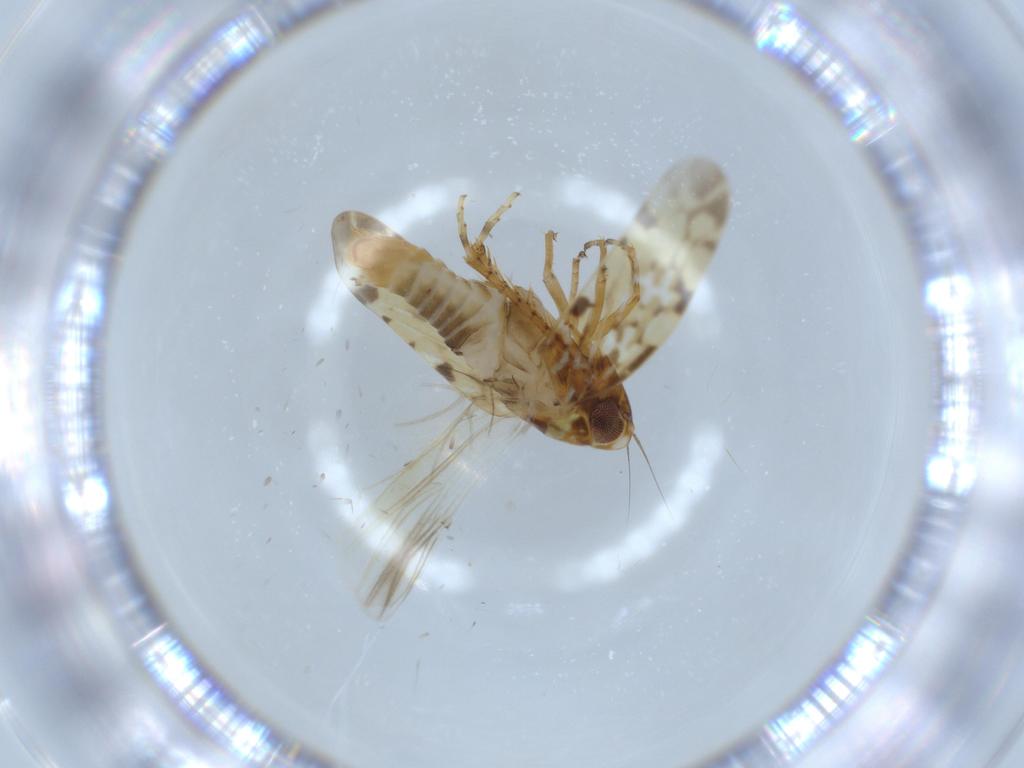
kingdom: Animalia
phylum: Arthropoda
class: Insecta
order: Hemiptera
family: Cicadellidae
